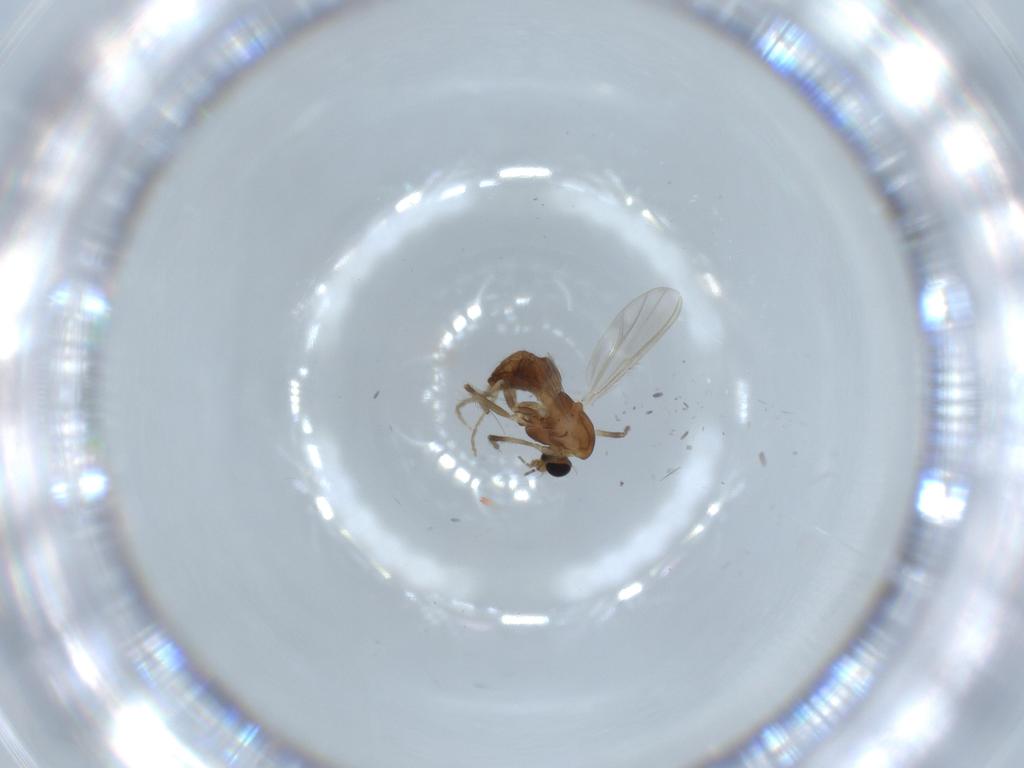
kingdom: Animalia
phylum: Arthropoda
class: Insecta
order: Diptera
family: Chironomidae
